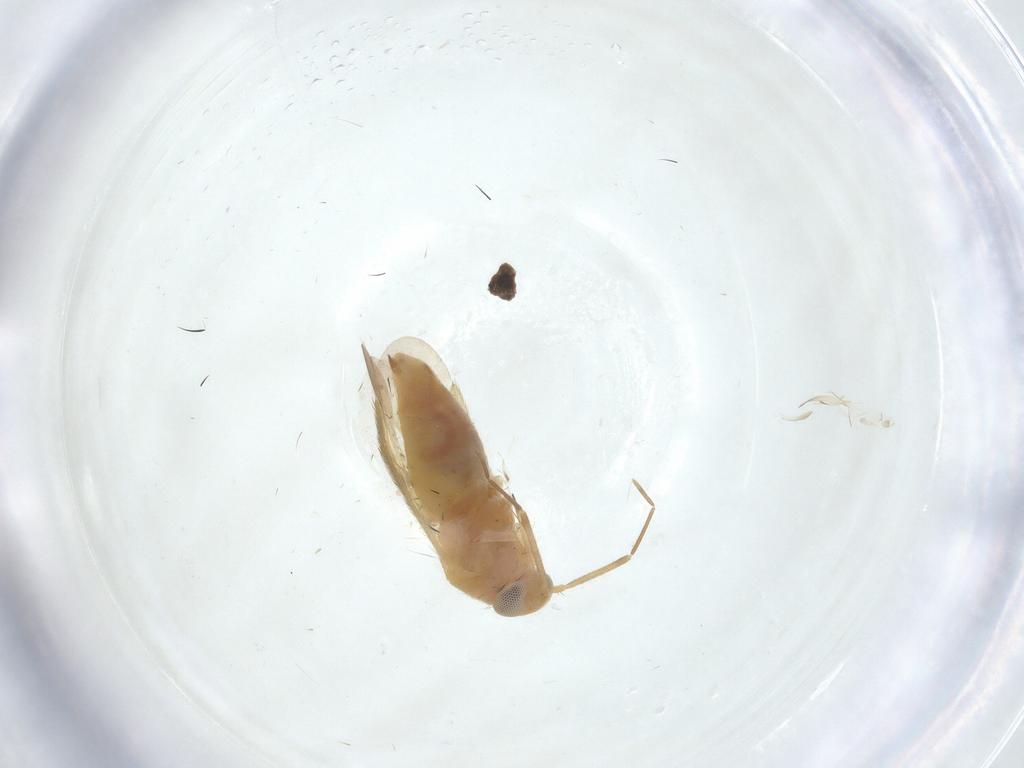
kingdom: Animalia
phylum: Arthropoda
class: Insecta
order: Hemiptera
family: Miridae
